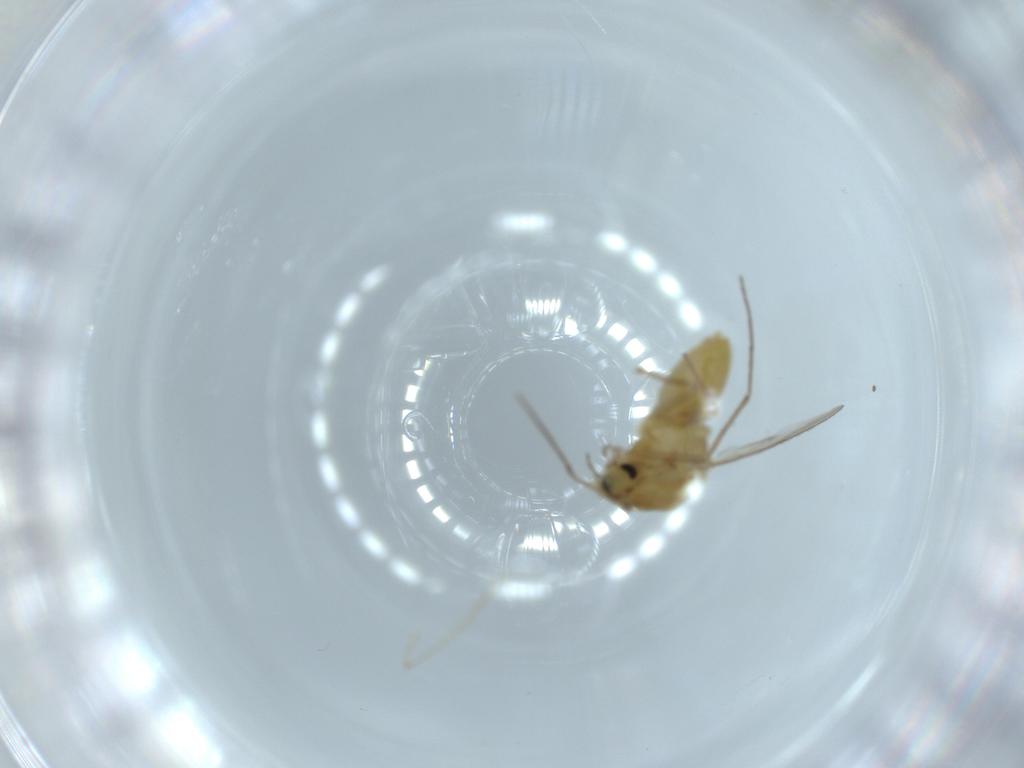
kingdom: Animalia
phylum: Arthropoda
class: Insecta
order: Diptera
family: Chironomidae
